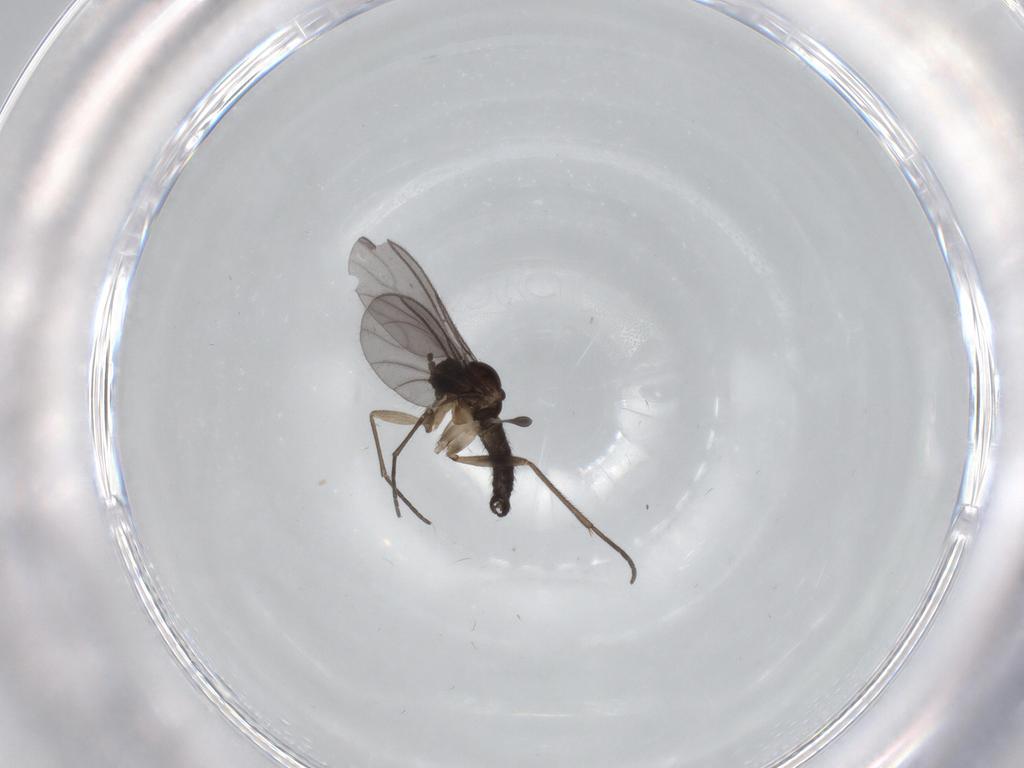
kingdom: Animalia
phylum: Arthropoda
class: Insecta
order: Diptera
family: Sciaridae
